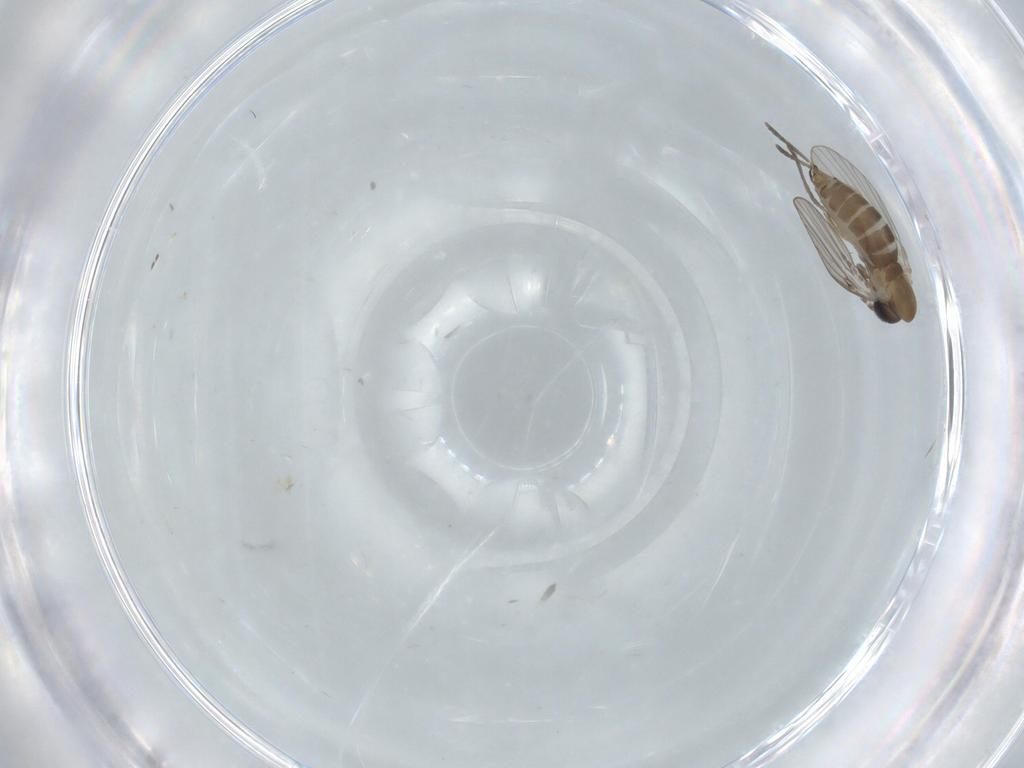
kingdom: Animalia
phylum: Arthropoda
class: Insecta
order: Diptera
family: Psychodidae
